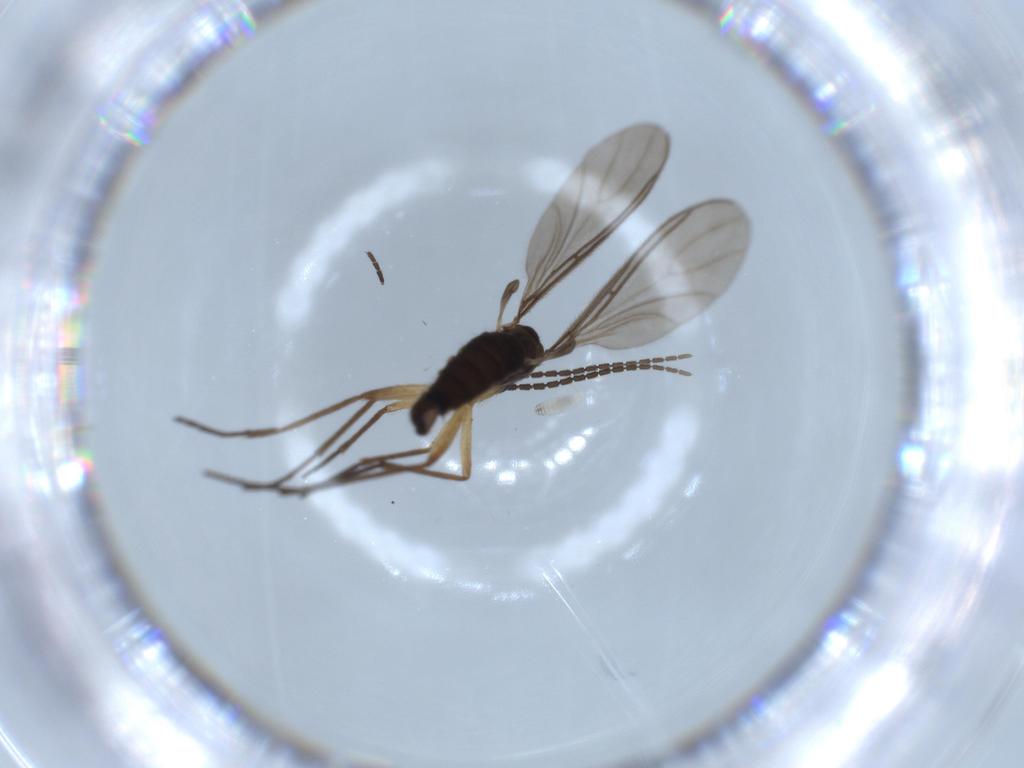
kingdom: Animalia
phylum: Arthropoda
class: Insecta
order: Diptera
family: Sciaridae
